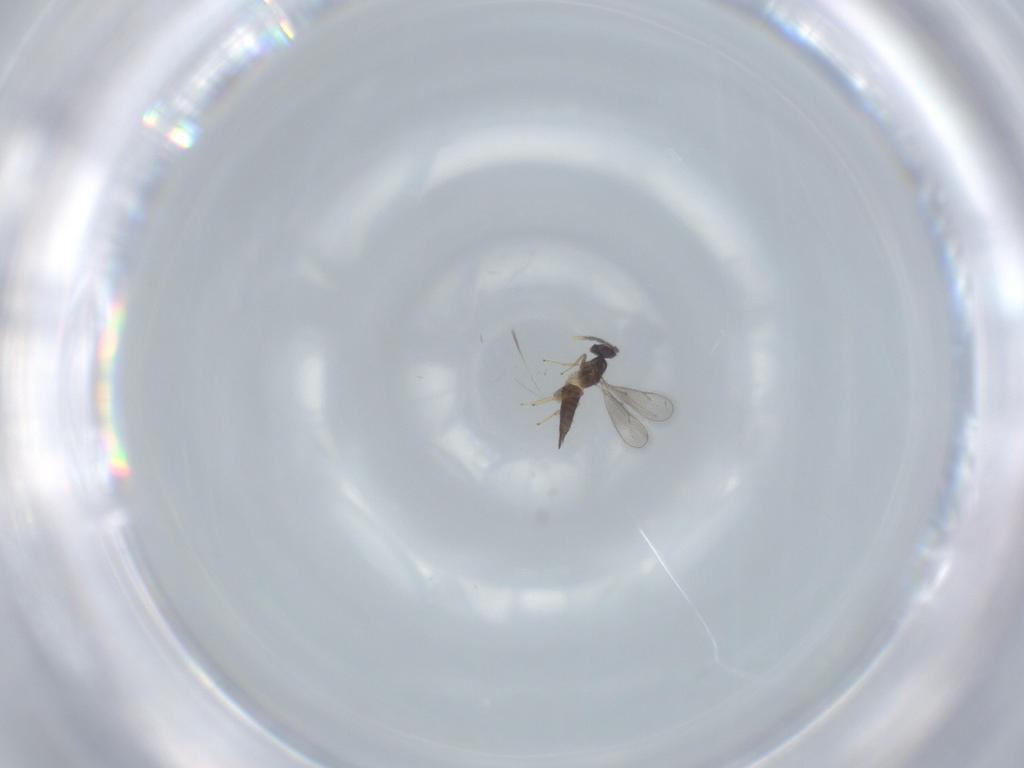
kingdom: Animalia
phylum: Arthropoda
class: Insecta
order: Hymenoptera
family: Eulophidae
